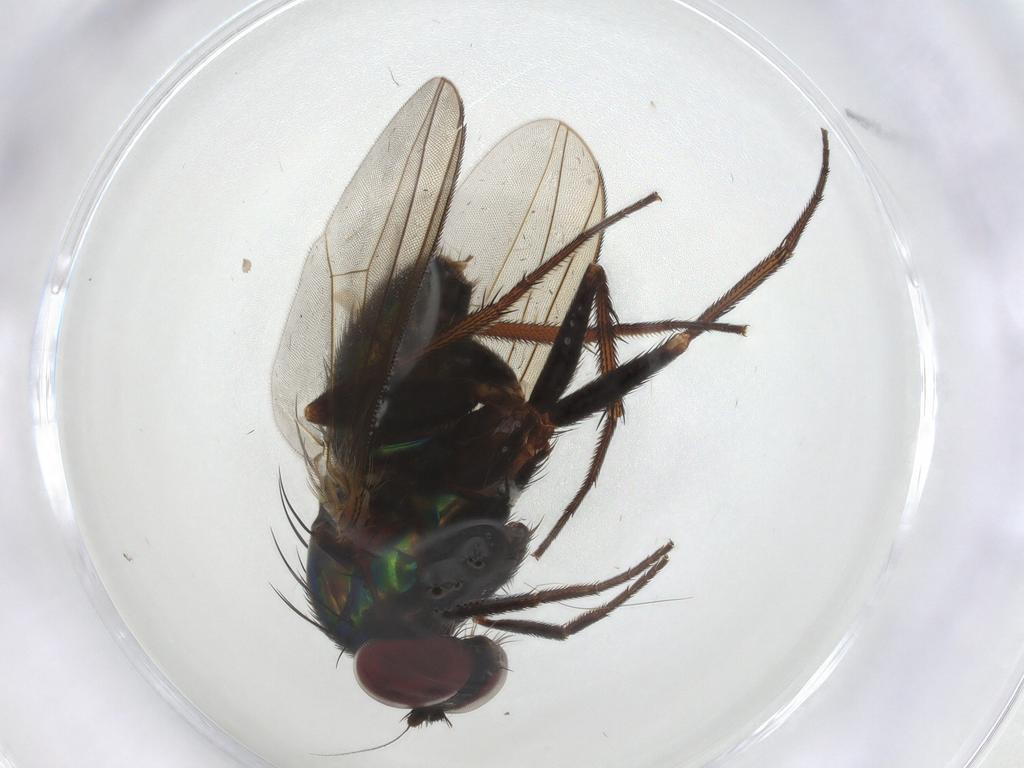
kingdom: Animalia
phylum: Arthropoda
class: Insecta
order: Diptera
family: Dolichopodidae
